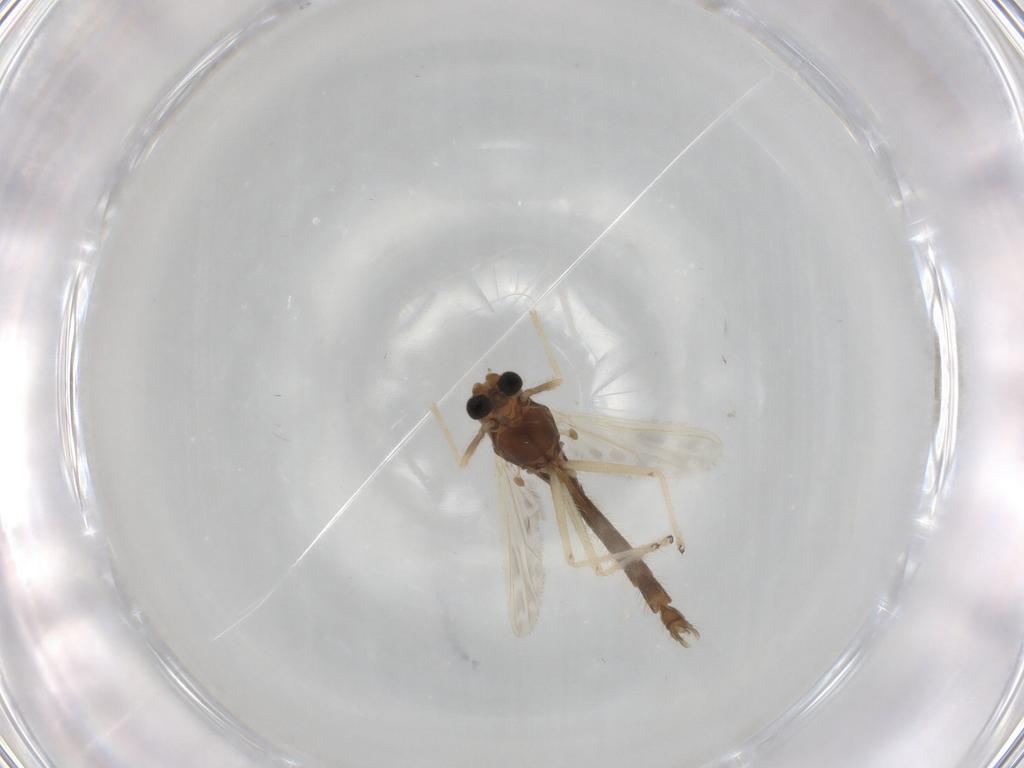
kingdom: Animalia
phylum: Arthropoda
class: Insecta
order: Diptera
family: Chironomidae
